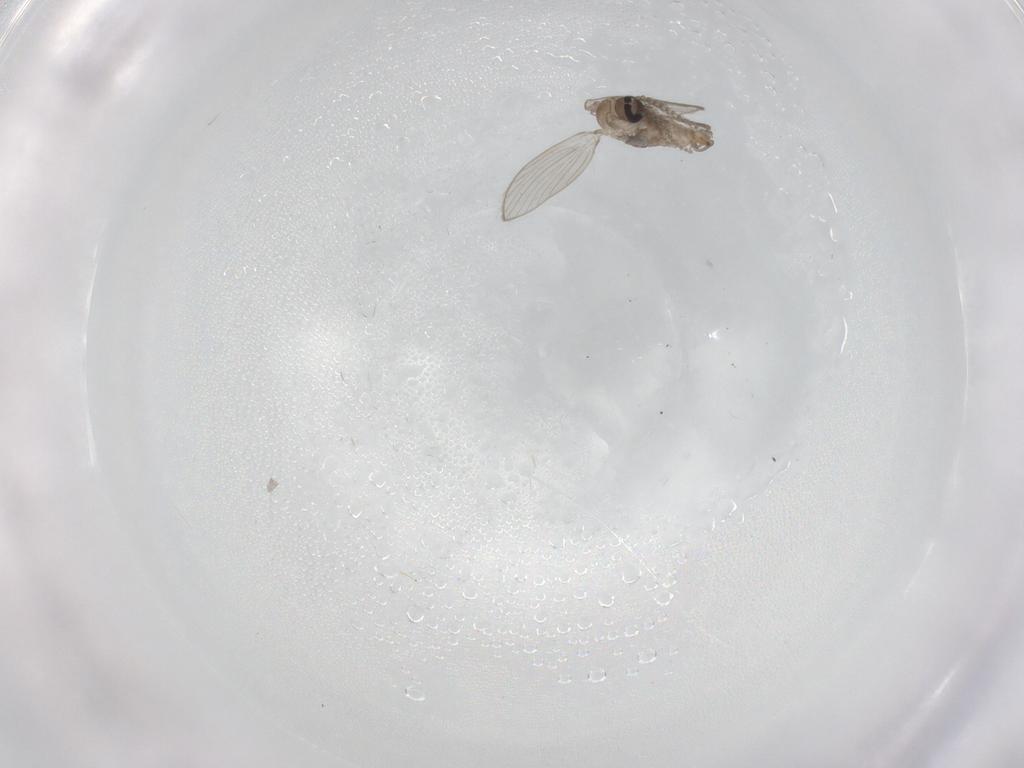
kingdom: Animalia
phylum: Arthropoda
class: Insecta
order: Diptera
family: Psychodidae
